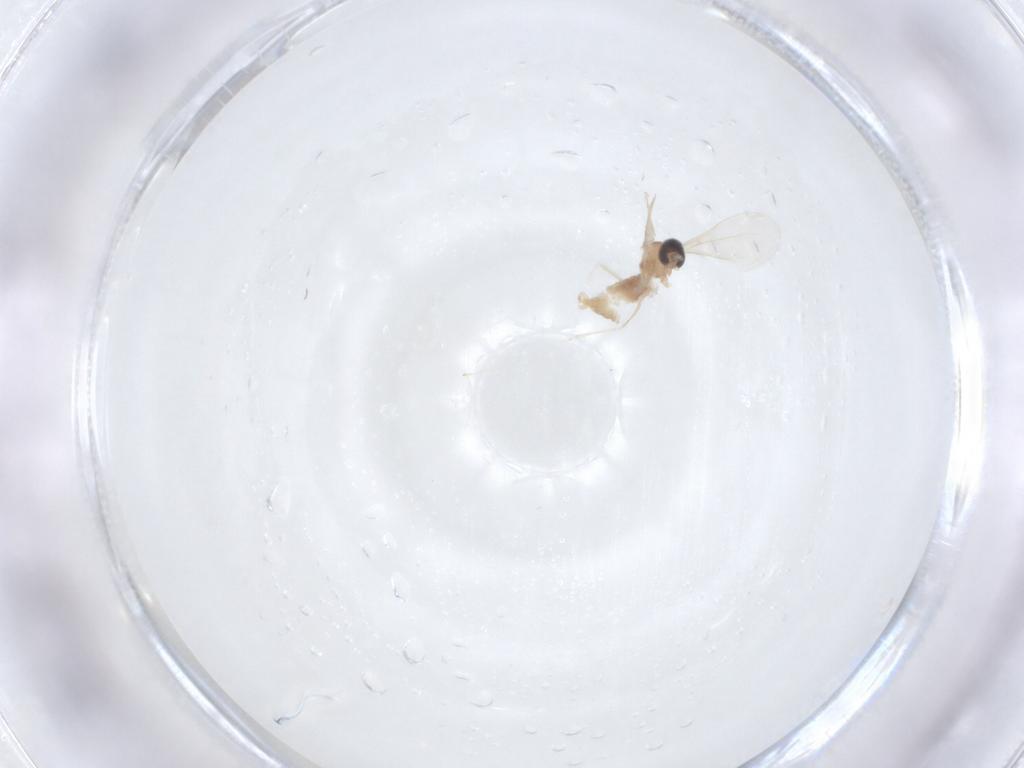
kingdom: Animalia
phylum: Arthropoda
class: Insecta
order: Diptera
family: Cecidomyiidae
